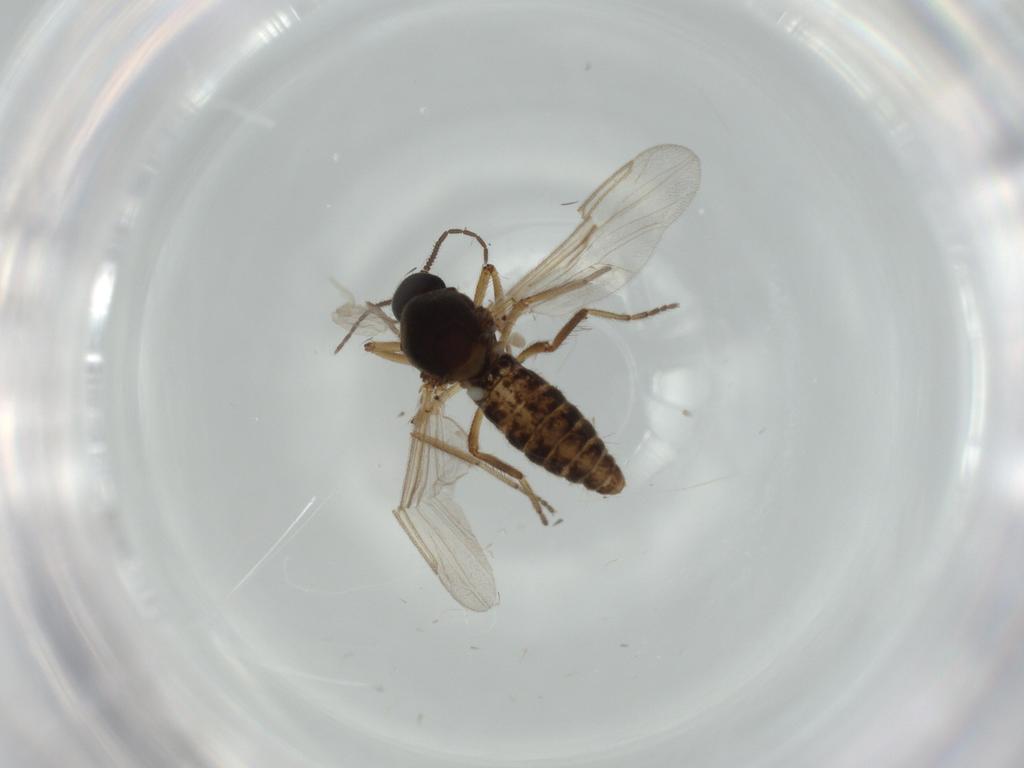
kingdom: Animalia
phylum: Arthropoda
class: Insecta
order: Diptera
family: Ceratopogonidae
